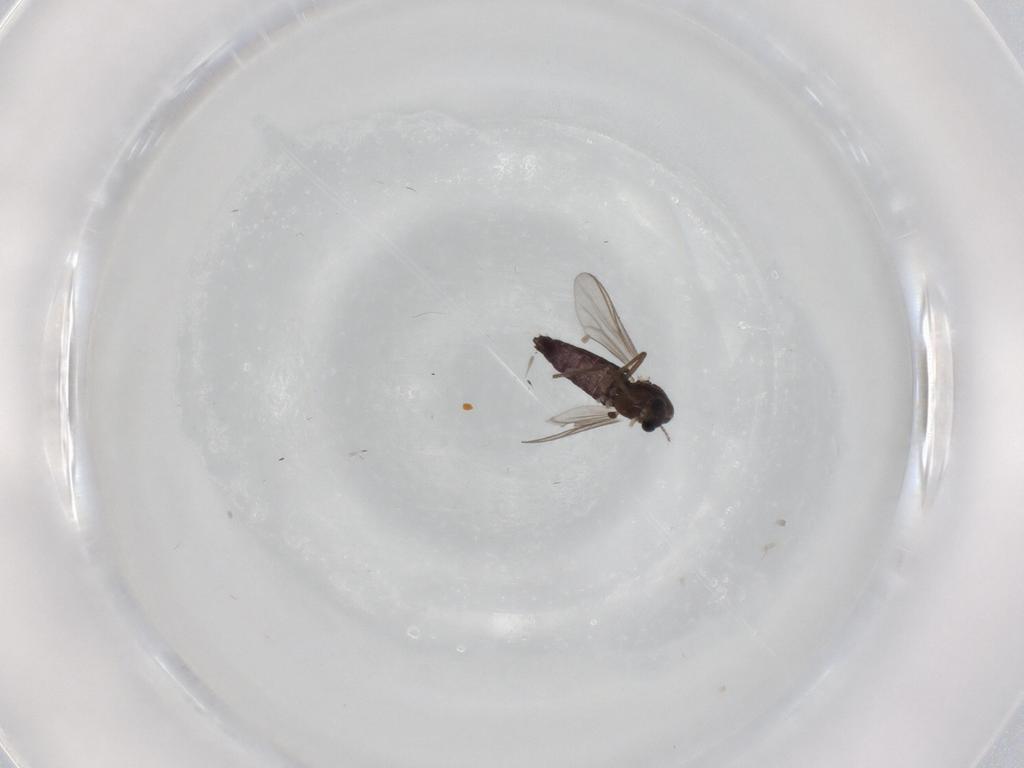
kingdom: Animalia
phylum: Arthropoda
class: Insecta
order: Diptera
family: Chironomidae
